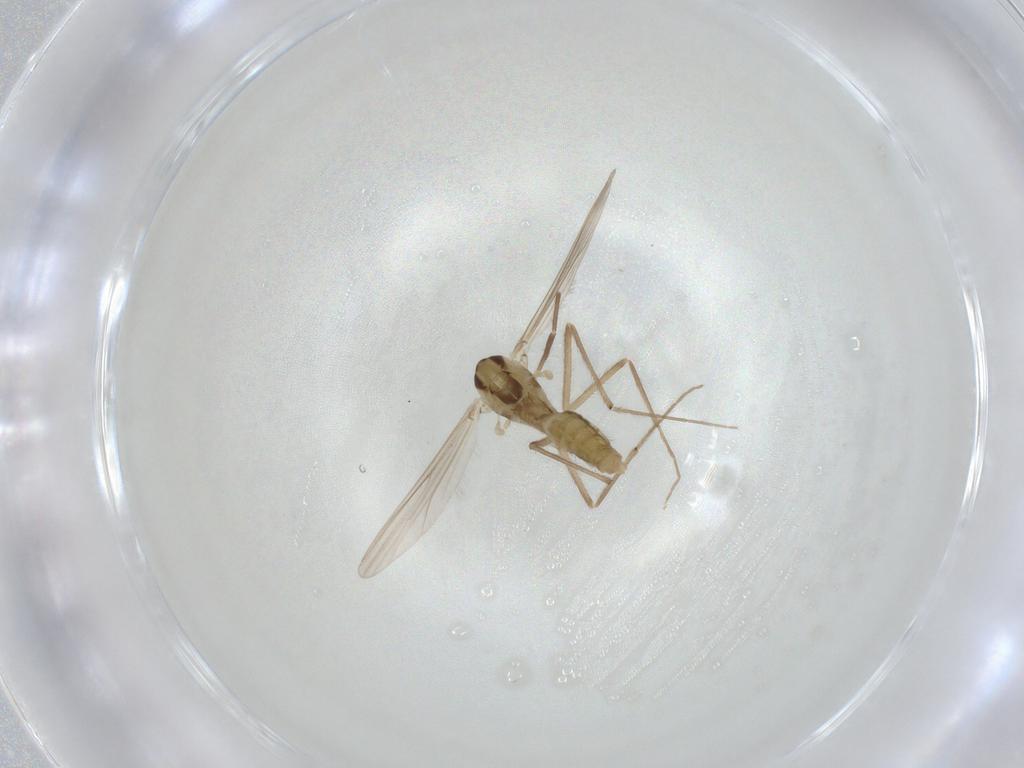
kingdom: Animalia
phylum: Arthropoda
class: Insecta
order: Diptera
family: Chironomidae
